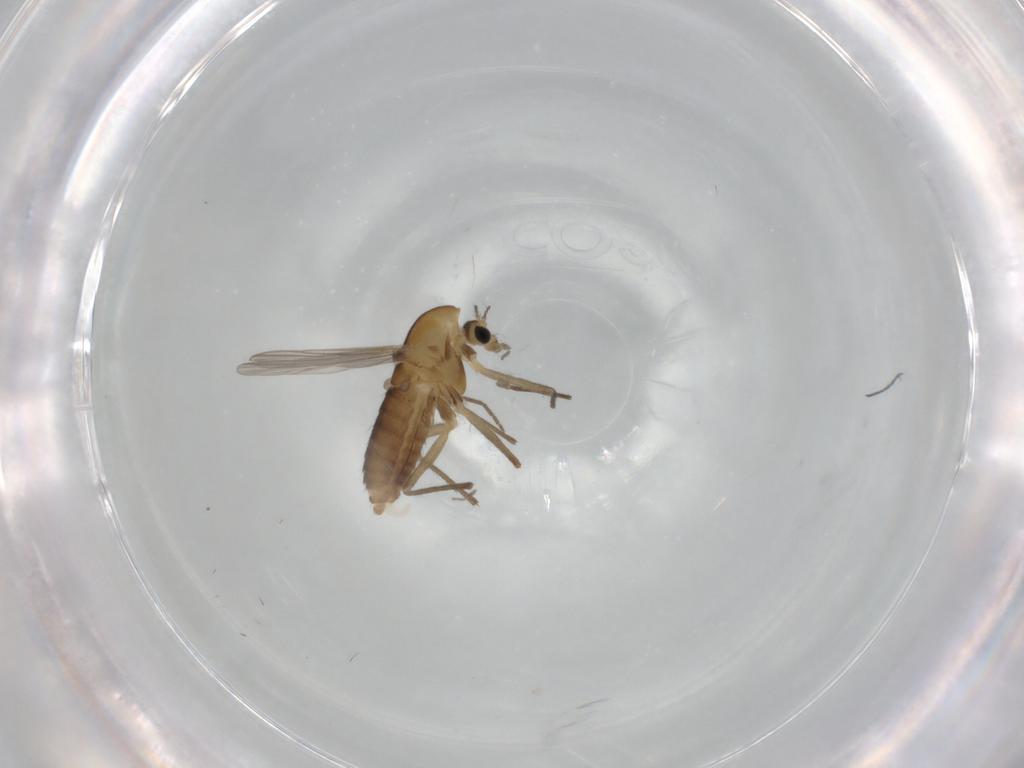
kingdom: Animalia
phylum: Arthropoda
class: Insecta
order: Diptera
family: Chironomidae
